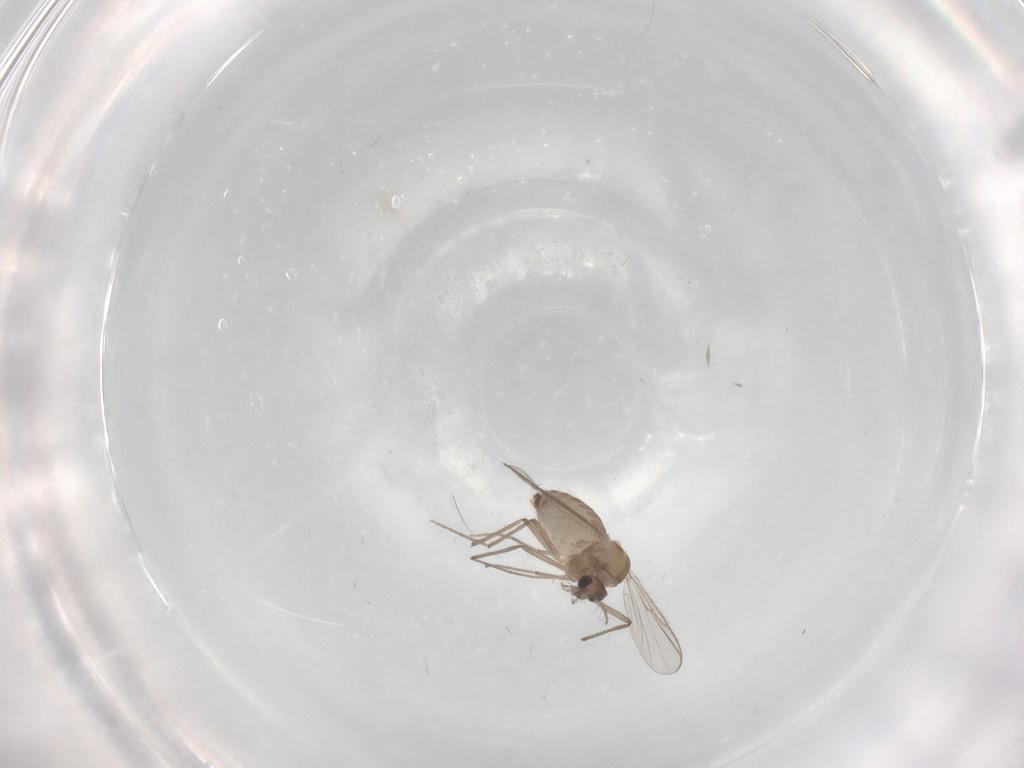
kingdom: Animalia
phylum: Arthropoda
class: Insecta
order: Diptera
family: Chironomidae
